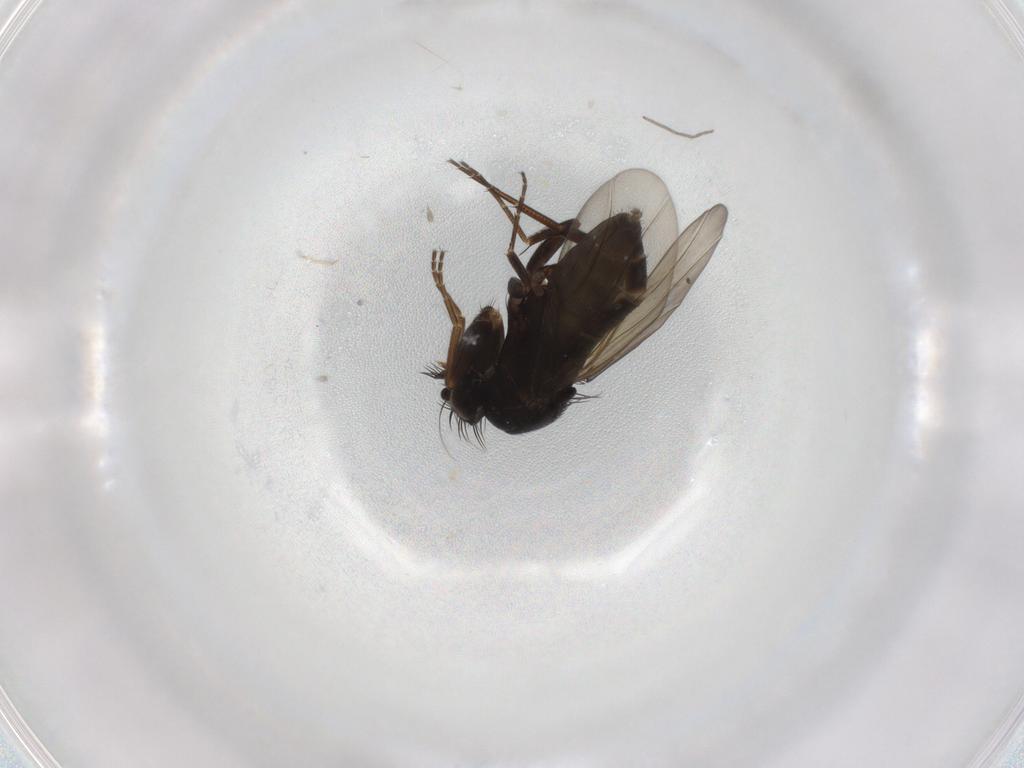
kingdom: Animalia
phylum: Arthropoda
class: Insecta
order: Diptera
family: Phoridae
